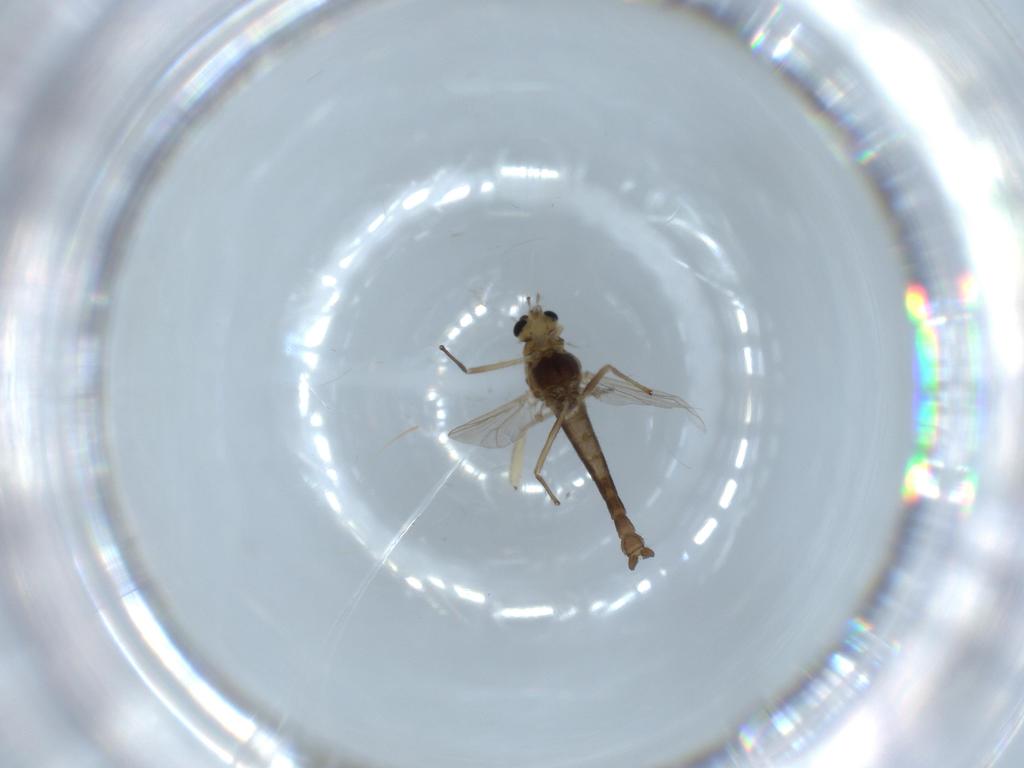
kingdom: Animalia
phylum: Arthropoda
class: Insecta
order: Diptera
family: Chironomidae
